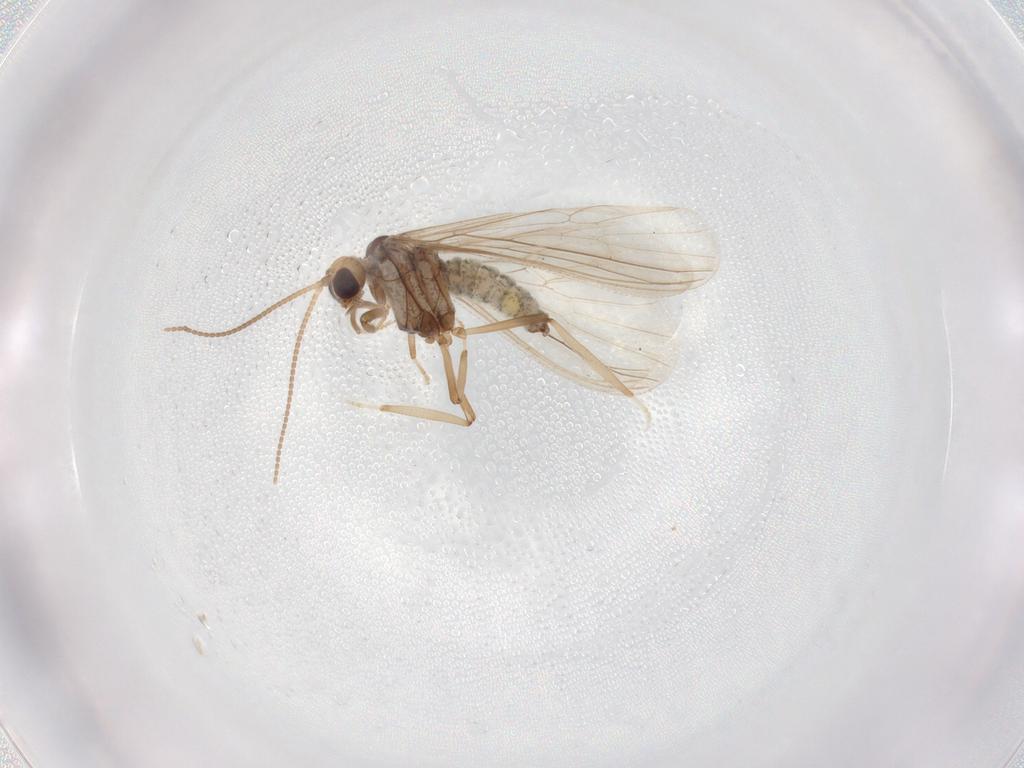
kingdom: Animalia
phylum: Arthropoda
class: Insecta
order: Neuroptera
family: Coniopterygidae
